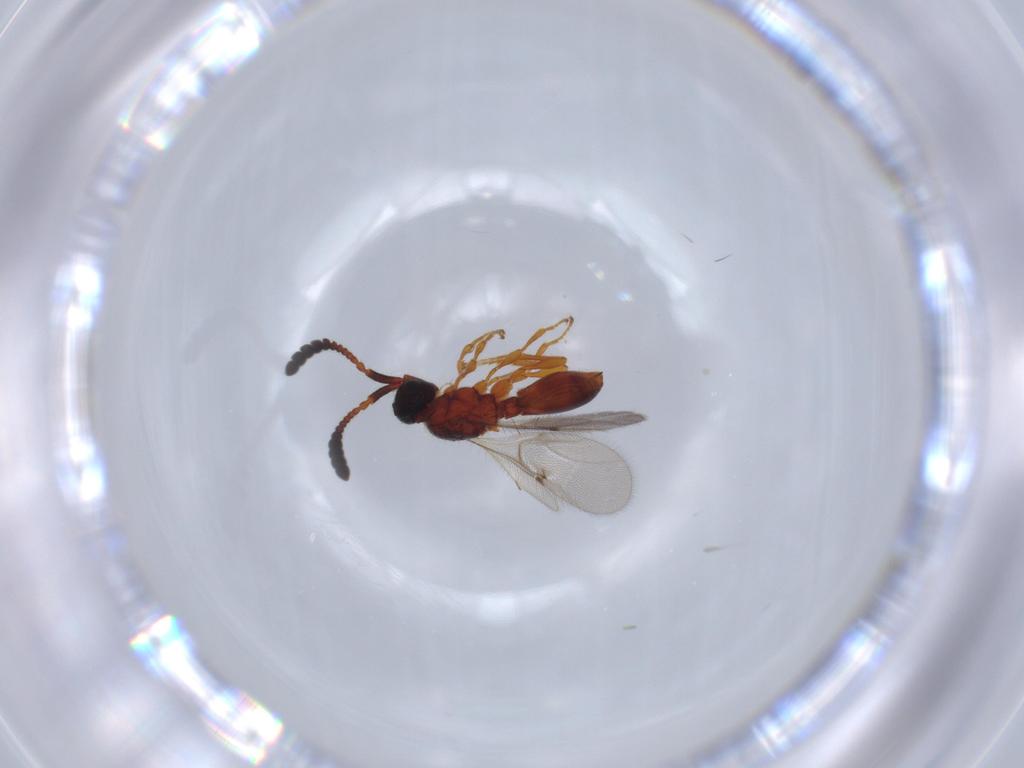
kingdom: Animalia
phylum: Arthropoda
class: Insecta
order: Hymenoptera
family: Diapriidae
